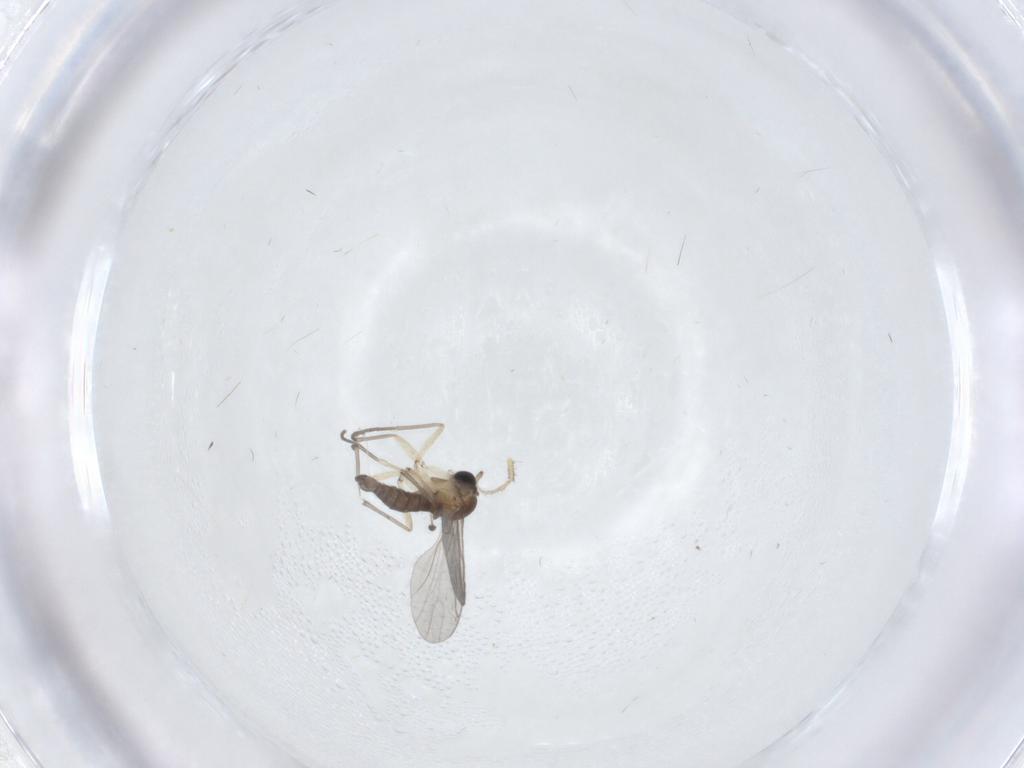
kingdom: Animalia
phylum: Arthropoda
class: Insecta
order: Diptera
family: Sciaridae
